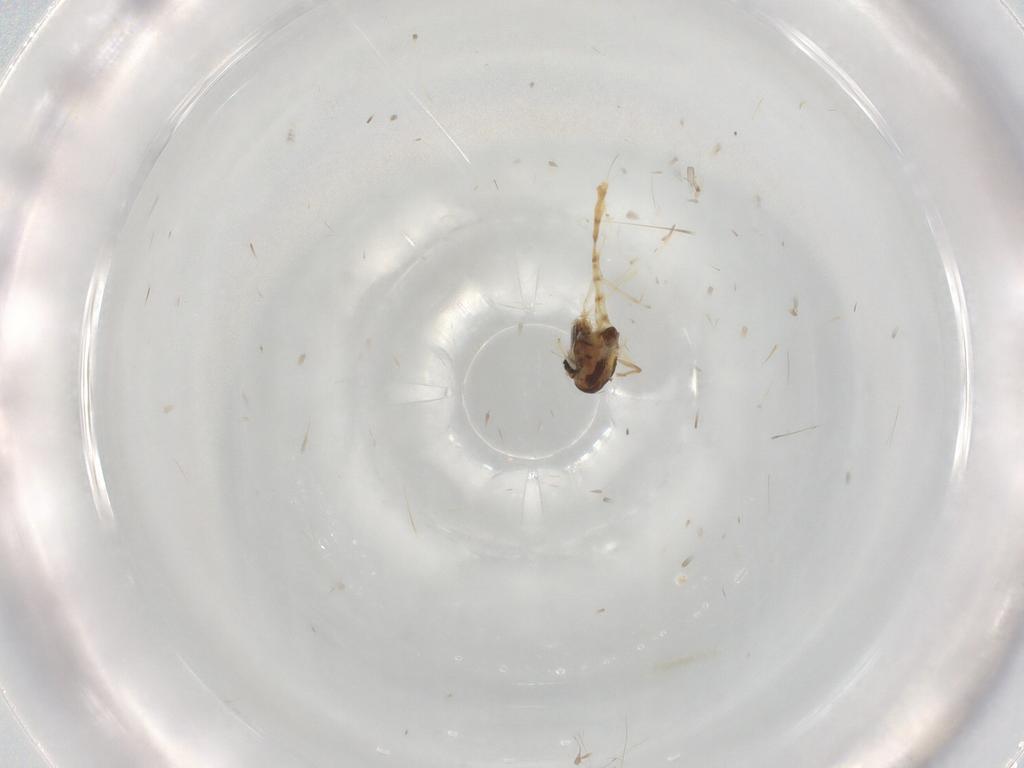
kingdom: Animalia
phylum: Arthropoda
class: Insecta
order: Diptera
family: Chironomidae
